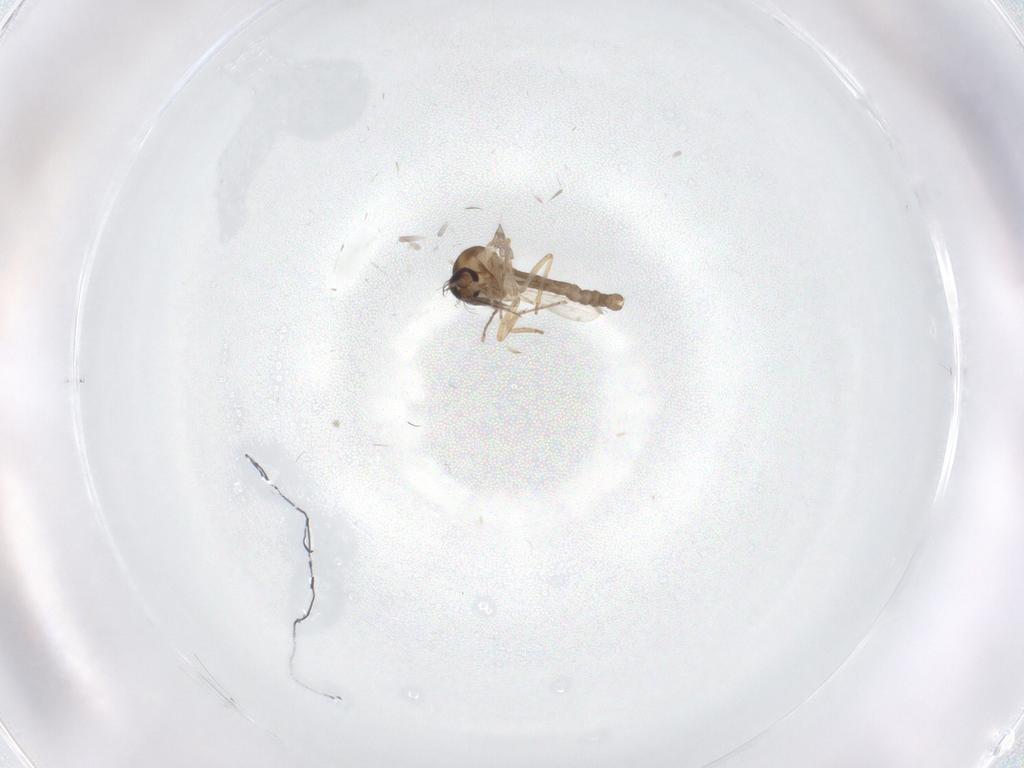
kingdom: Animalia
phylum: Arthropoda
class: Insecta
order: Diptera
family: Ceratopogonidae
